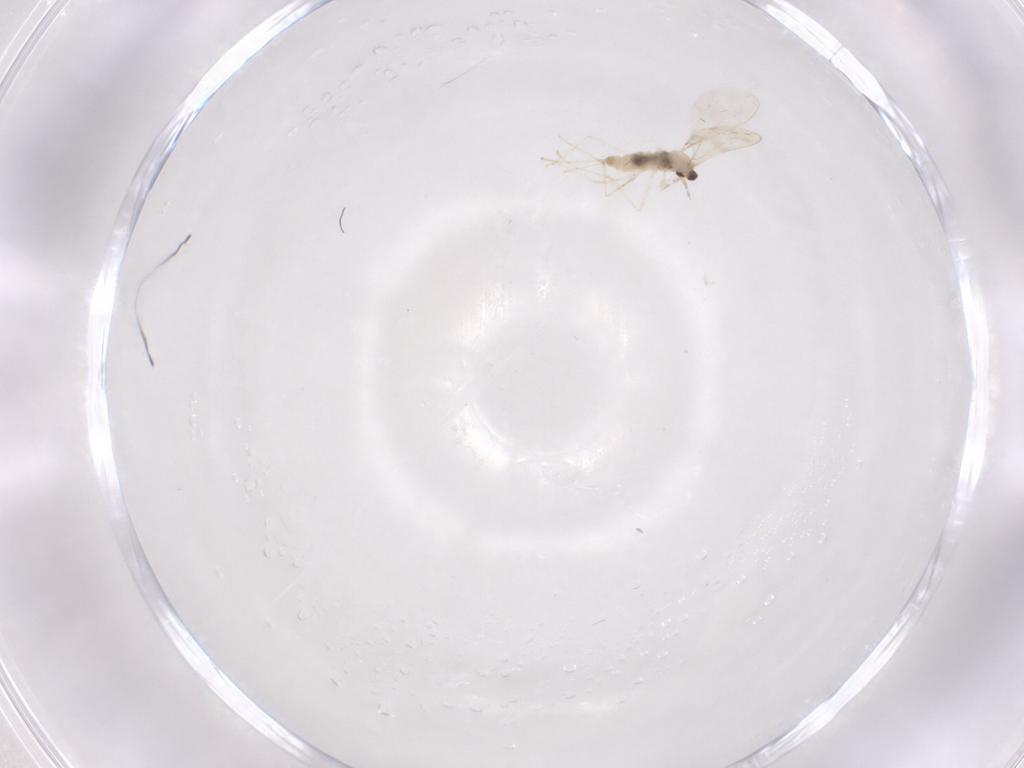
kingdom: Animalia
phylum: Arthropoda
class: Insecta
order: Diptera
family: Cecidomyiidae
